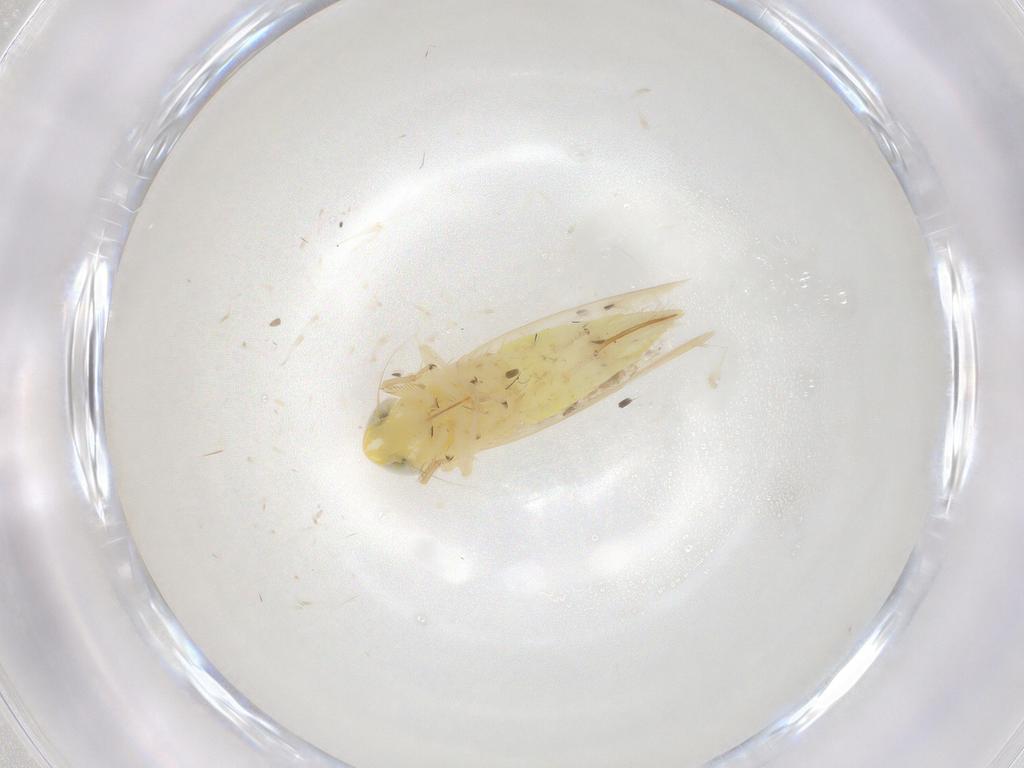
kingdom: Animalia
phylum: Arthropoda
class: Insecta
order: Hemiptera
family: Cicadellidae
